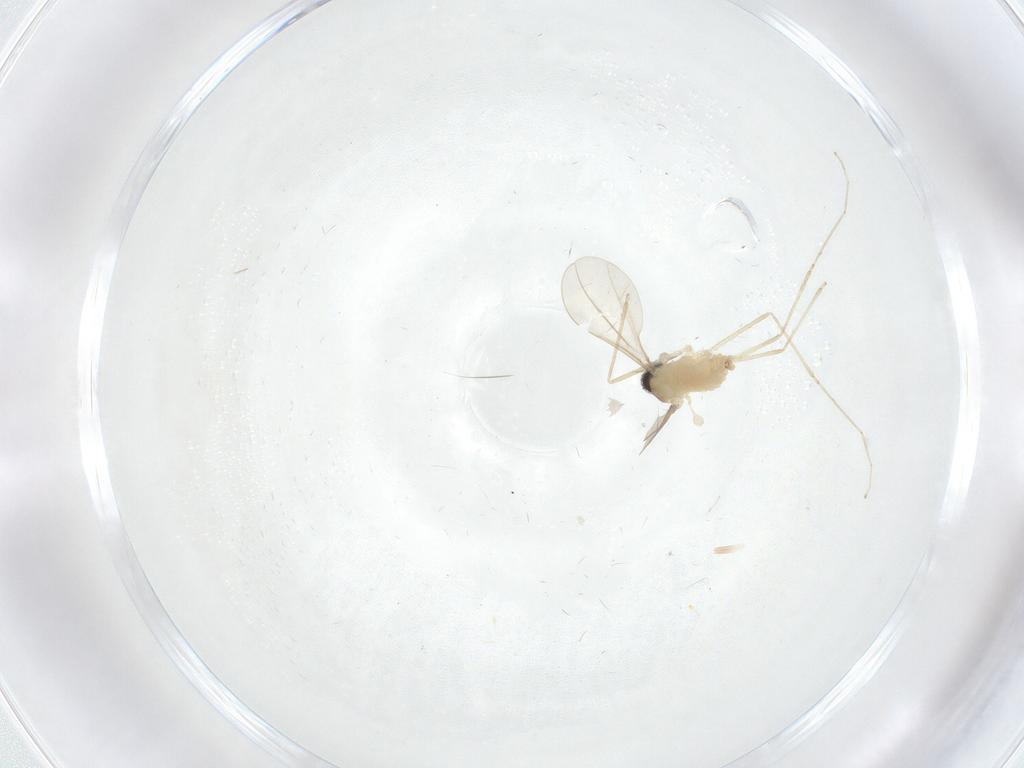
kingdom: Animalia
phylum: Arthropoda
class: Insecta
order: Diptera
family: Cecidomyiidae
